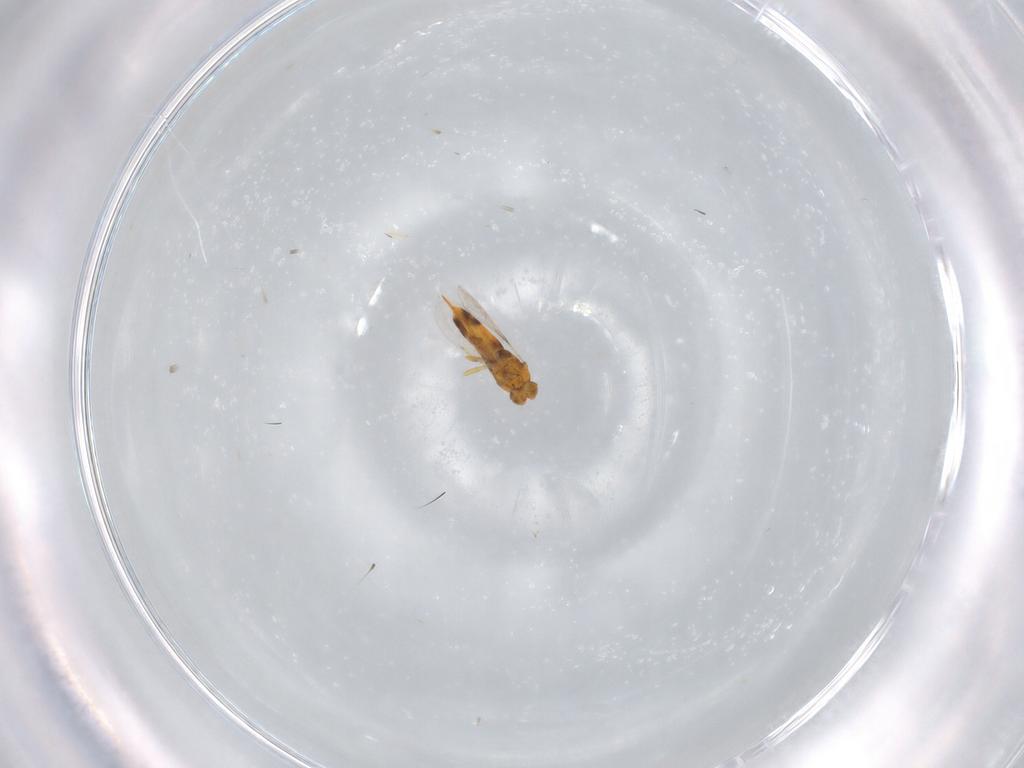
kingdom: Animalia
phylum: Arthropoda
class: Insecta
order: Hymenoptera
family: Aphelinidae
